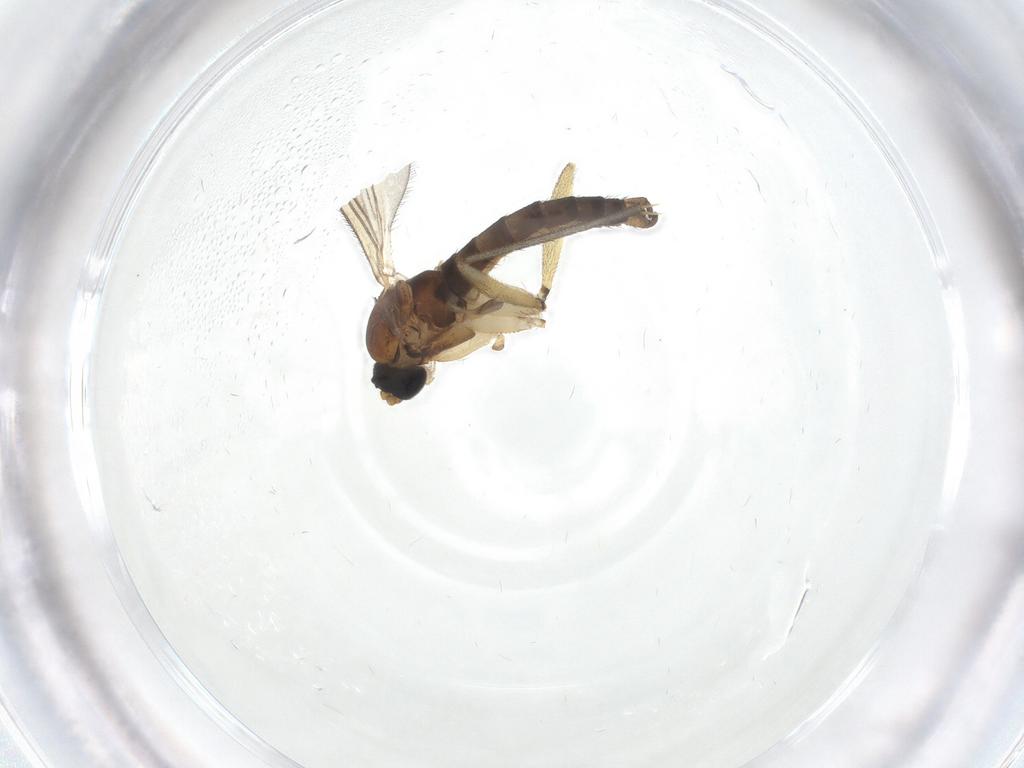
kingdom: Animalia
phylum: Arthropoda
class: Insecta
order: Diptera
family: Sciaridae
